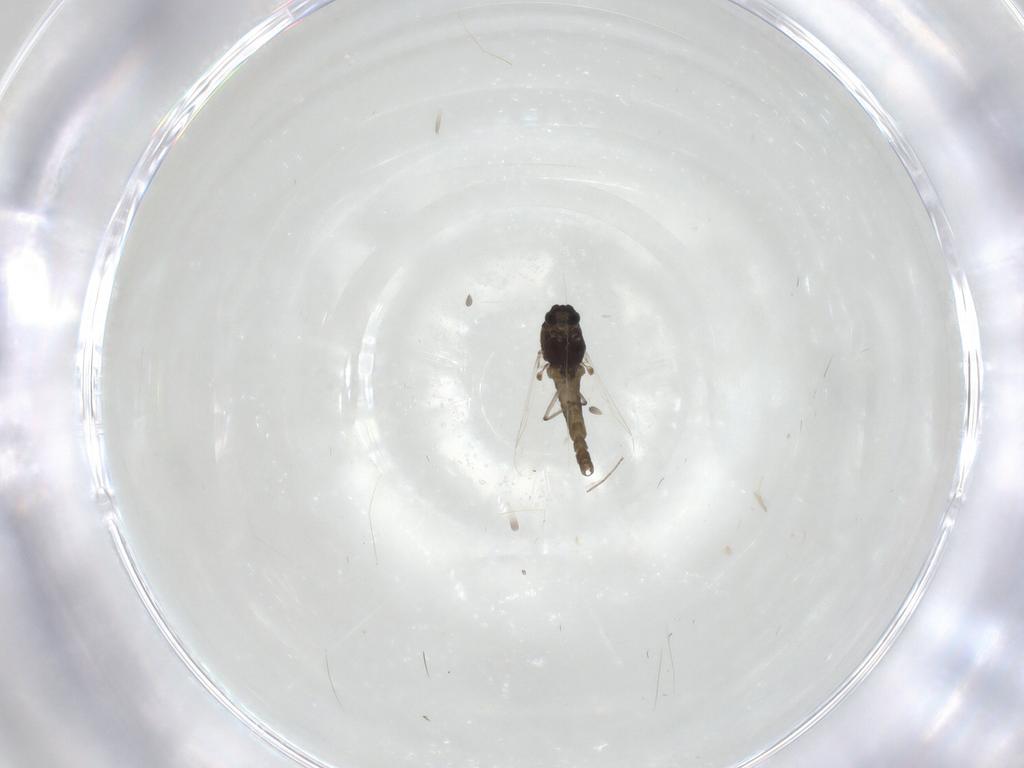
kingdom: Animalia
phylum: Arthropoda
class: Insecta
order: Diptera
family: Chironomidae
